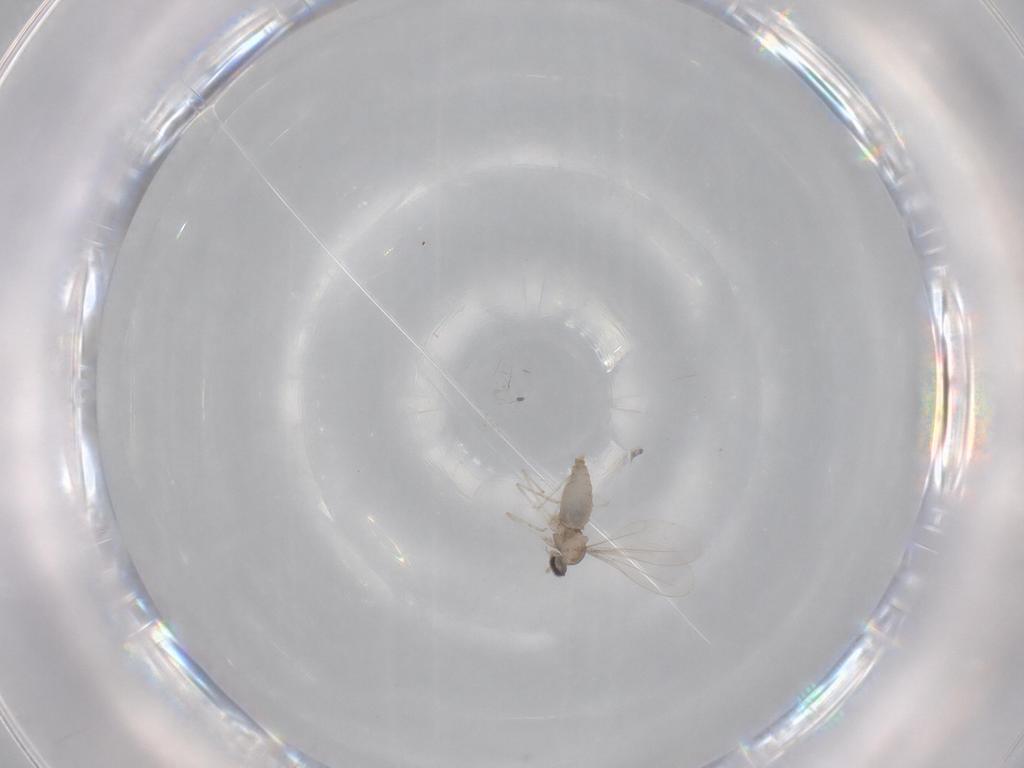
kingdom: Animalia
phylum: Arthropoda
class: Insecta
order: Diptera
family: Cecidomyiidae
